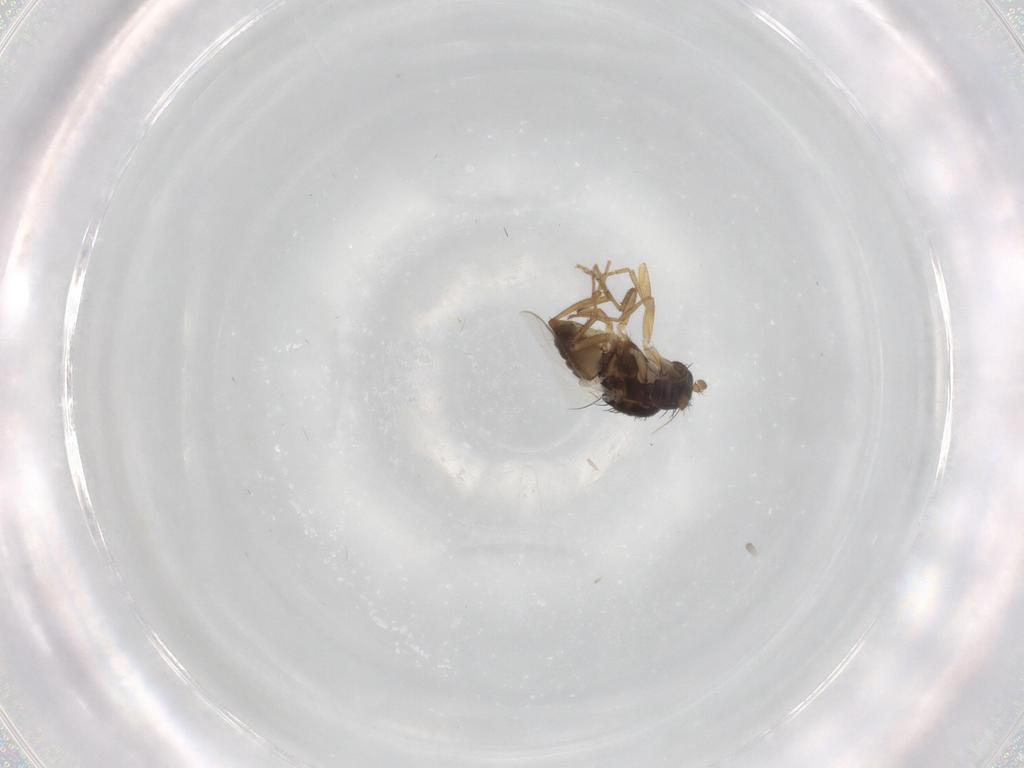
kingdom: Animalia
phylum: Arthropoda
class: Insecta
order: Diptera
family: Sphaeroceridae
